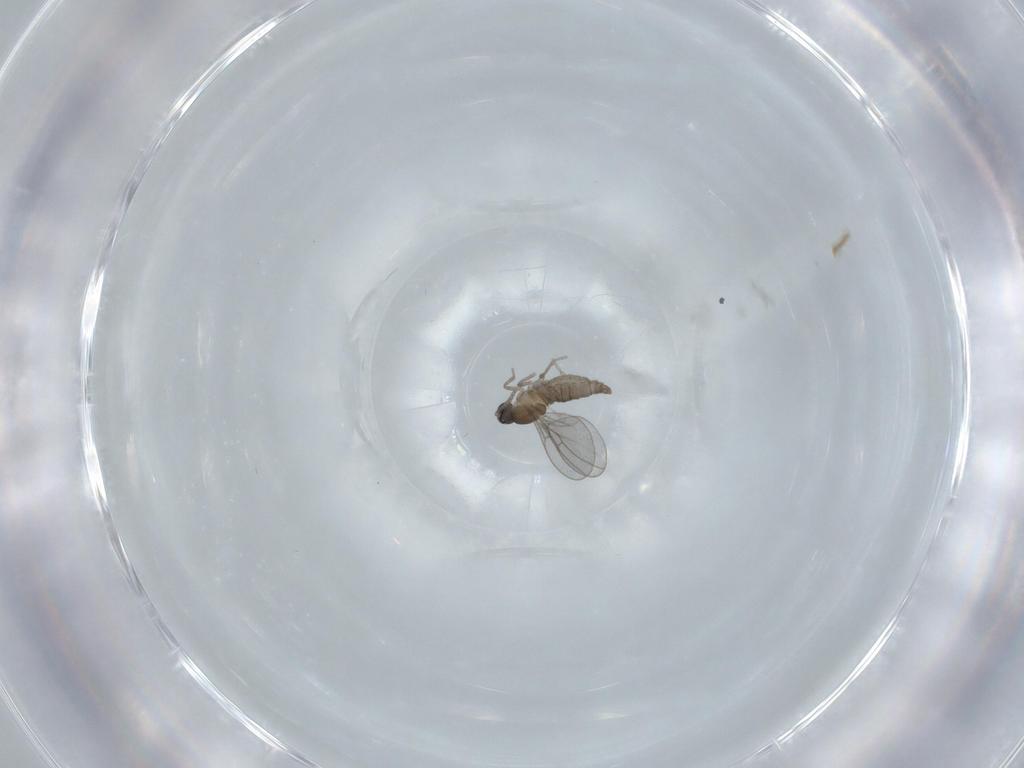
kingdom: Animalia
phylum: Arthropoda
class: Insecta
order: Diptera
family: Cecidomyiidae
